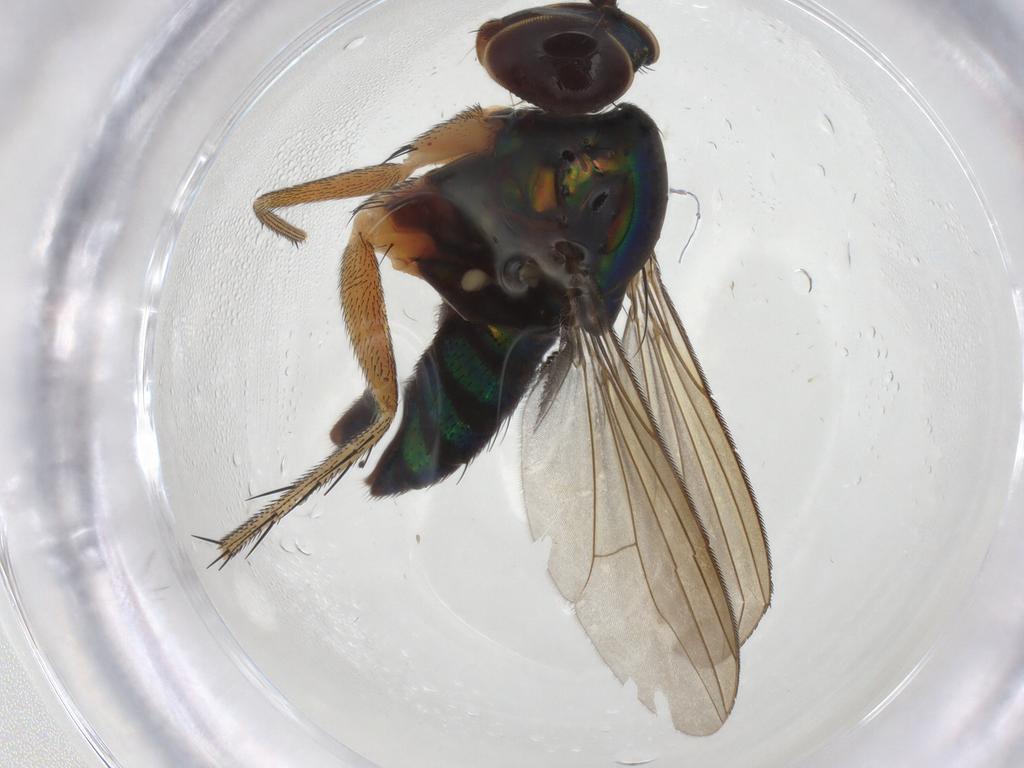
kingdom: Animalia
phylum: Arthropoda
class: Insecta
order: Diptera
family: Dolichopodidae
